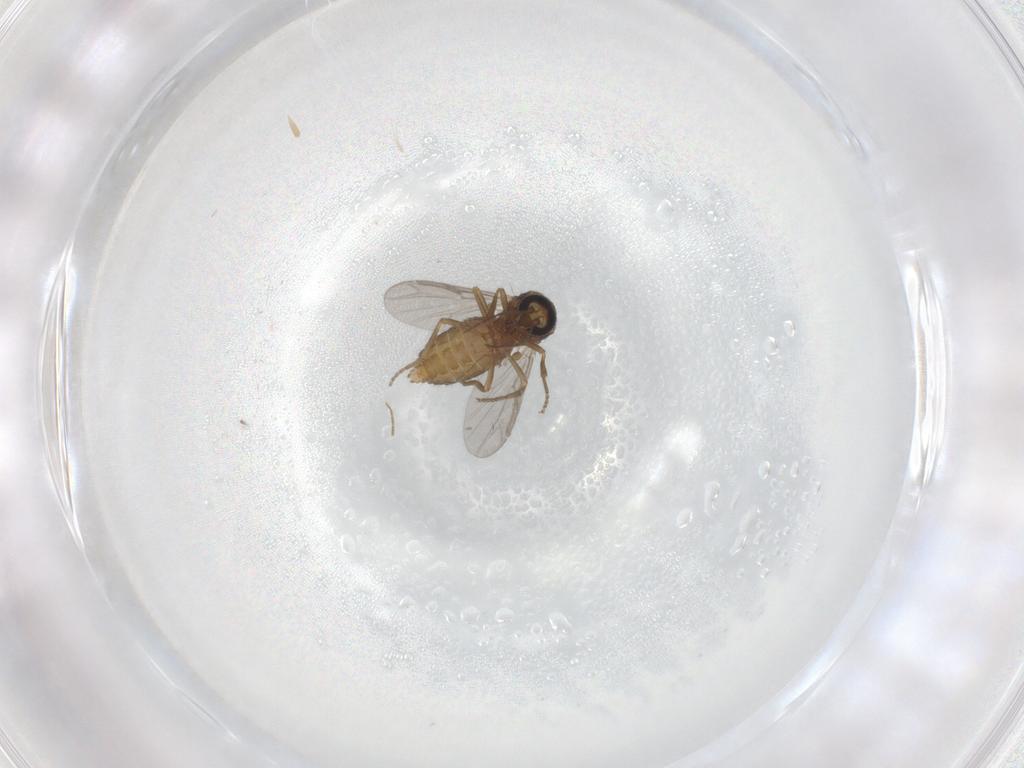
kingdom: Animalia
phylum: Arthropoda
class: Insecta
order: Diptera
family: Ceratopogonidae
